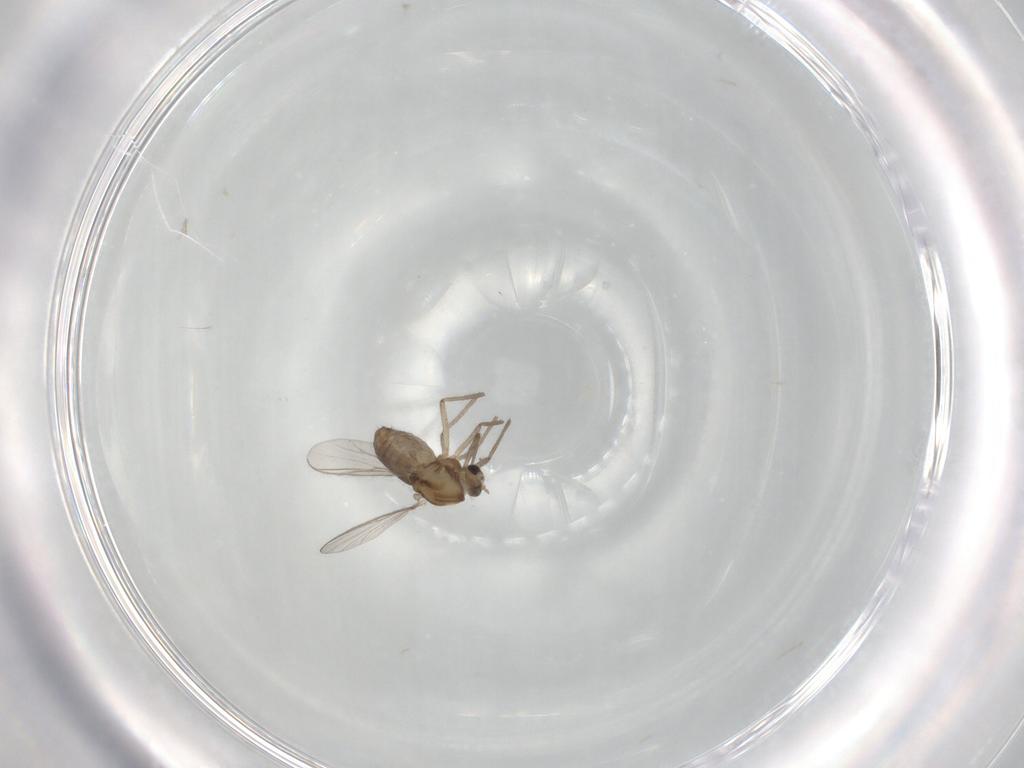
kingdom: Animalia
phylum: Arthropoda
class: Insecta
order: Diptera
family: Chironomidae
